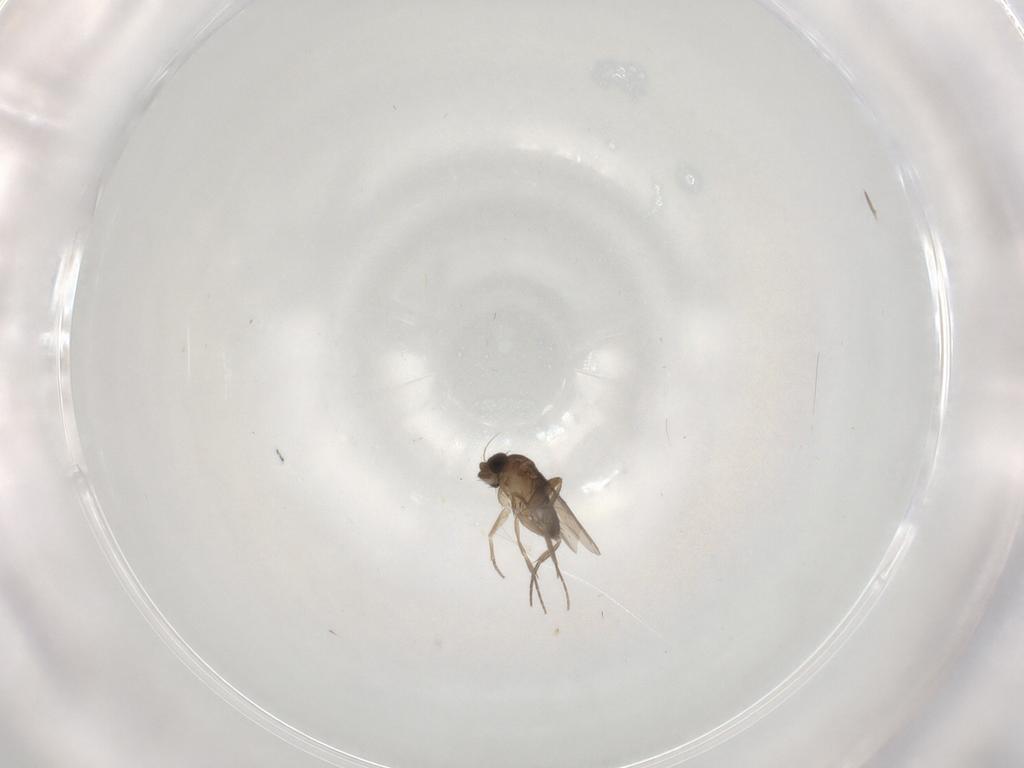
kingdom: Animalia
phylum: Arthropoda
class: Insecta
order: Diptera
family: Phoridae
